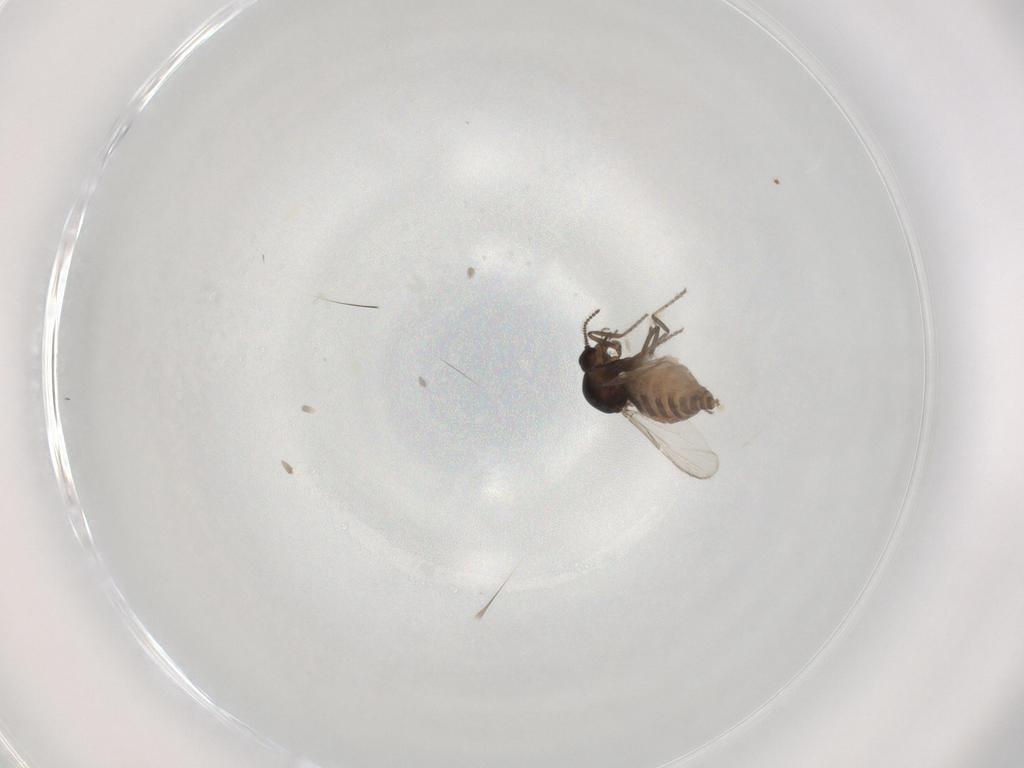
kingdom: Animalia
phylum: Arthropoda
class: Insecta
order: Diptera
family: Ceratopogonidae
